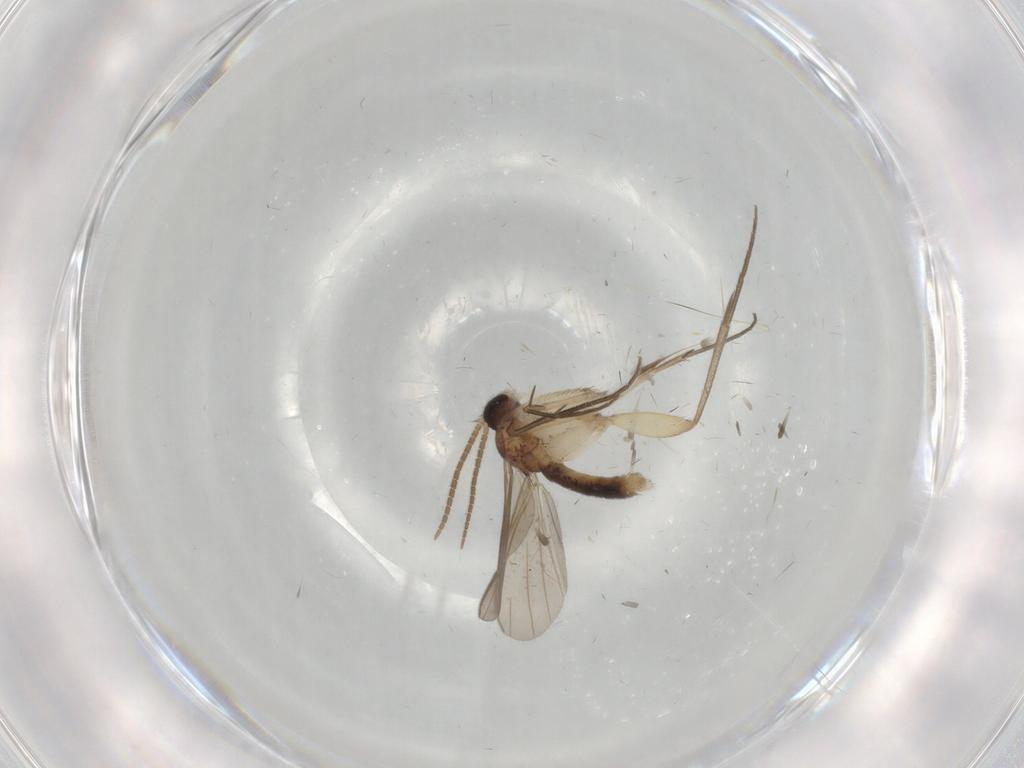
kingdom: Animalia
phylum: Arthropoda
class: Insecta
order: Diptera
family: Mycetophilidae
